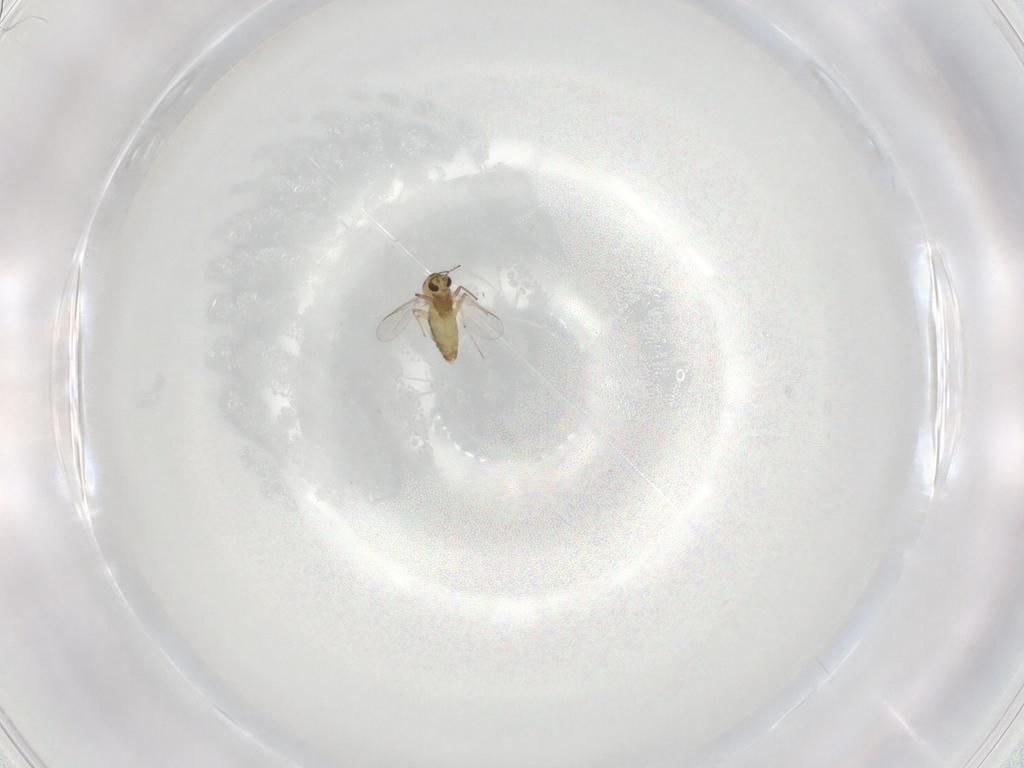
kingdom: Animalia
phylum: Arthropoda
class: Insecta
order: Diptera
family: Chironomidae
